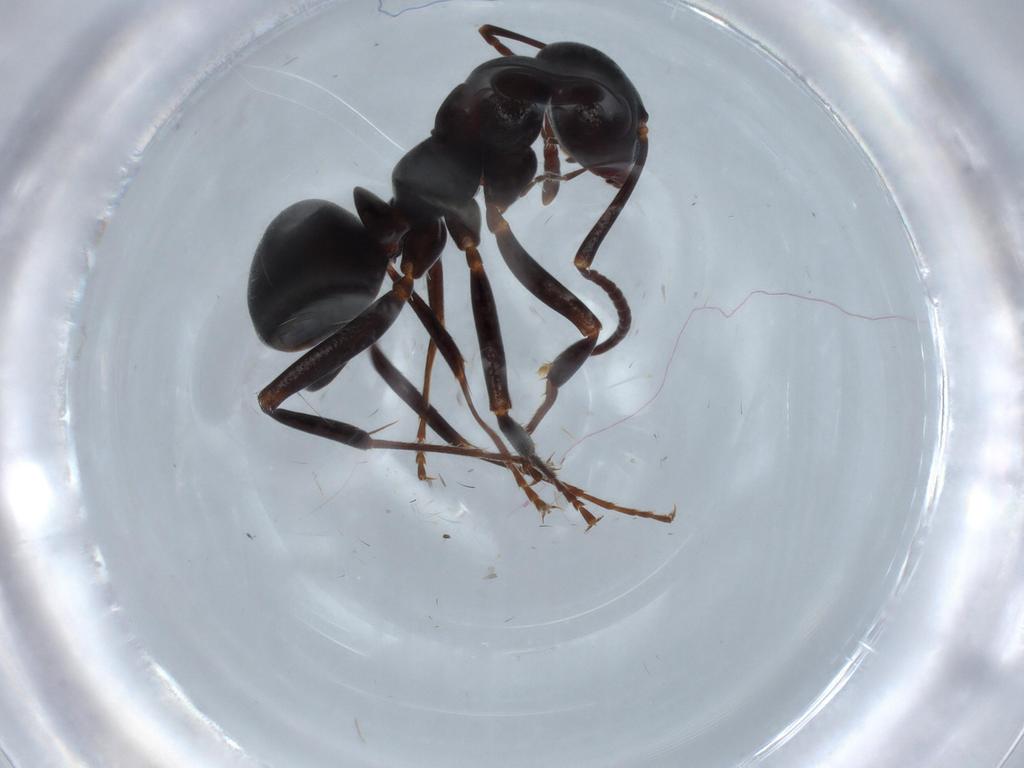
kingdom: Animalia
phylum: Arthropoda
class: Insecta
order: Hymenoptera
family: Formicidae
